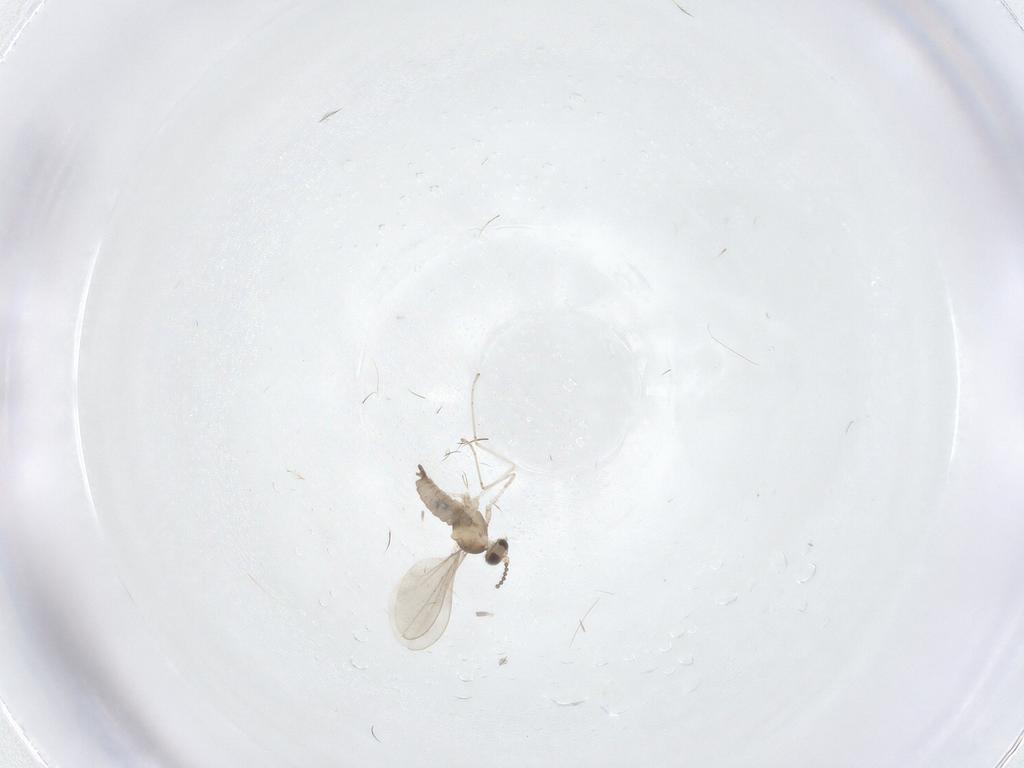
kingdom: Animalia
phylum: Arthropoda
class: Insecta
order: Diptera
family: Cecidomyiidae
